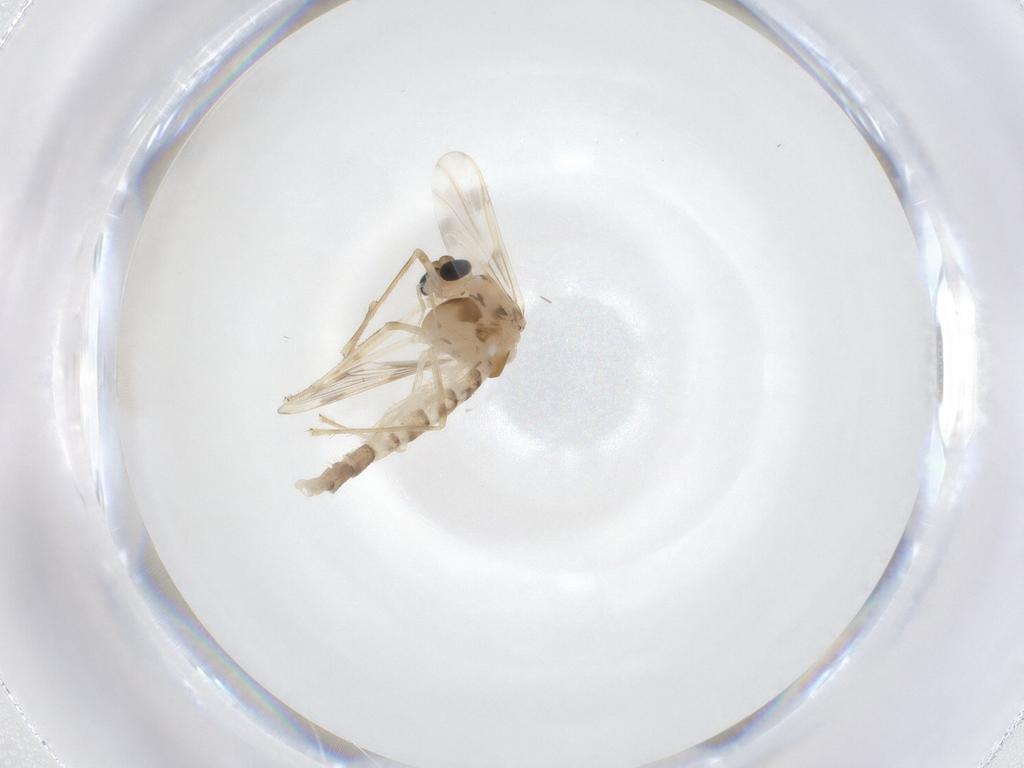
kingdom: Animalia
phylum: Arthropoda
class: Insecta
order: Diptera
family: Chironomidae
